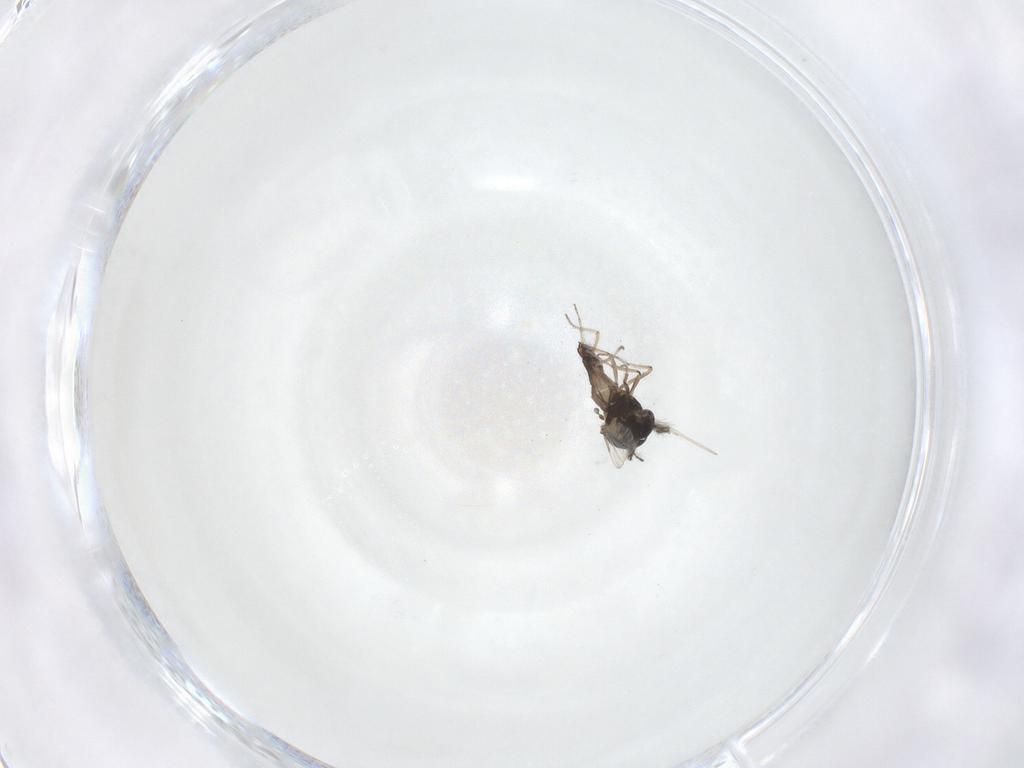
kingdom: Animalia
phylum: Arthropoda
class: Insecta
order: Diptera
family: Ceratopogonidae
